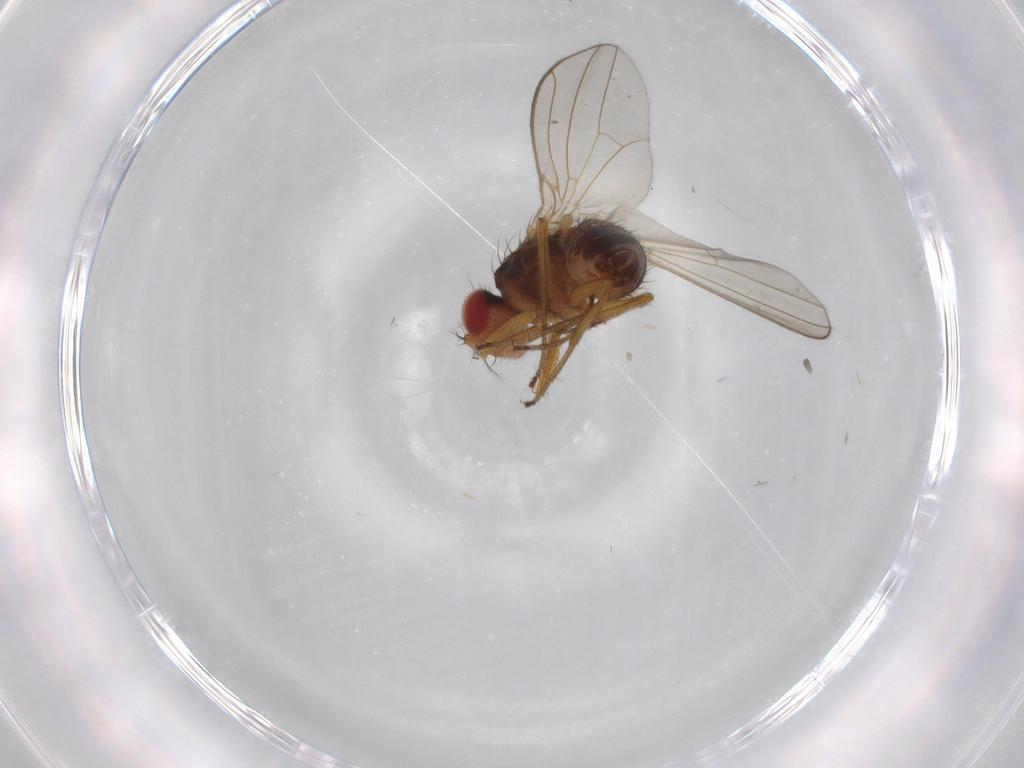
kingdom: Animalia
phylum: Arthropoda
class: Insecta
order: Diptera
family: Drosophilidae
